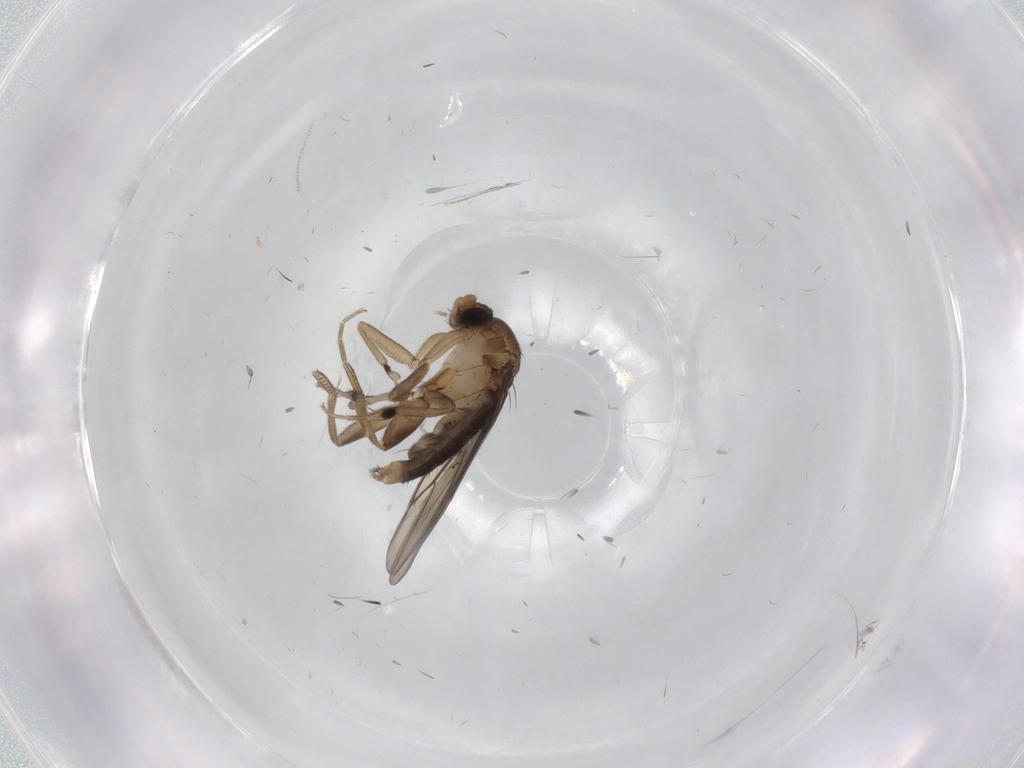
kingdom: Animalia
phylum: Arthropoda
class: Insecta
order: Diptera
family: Phoridae
